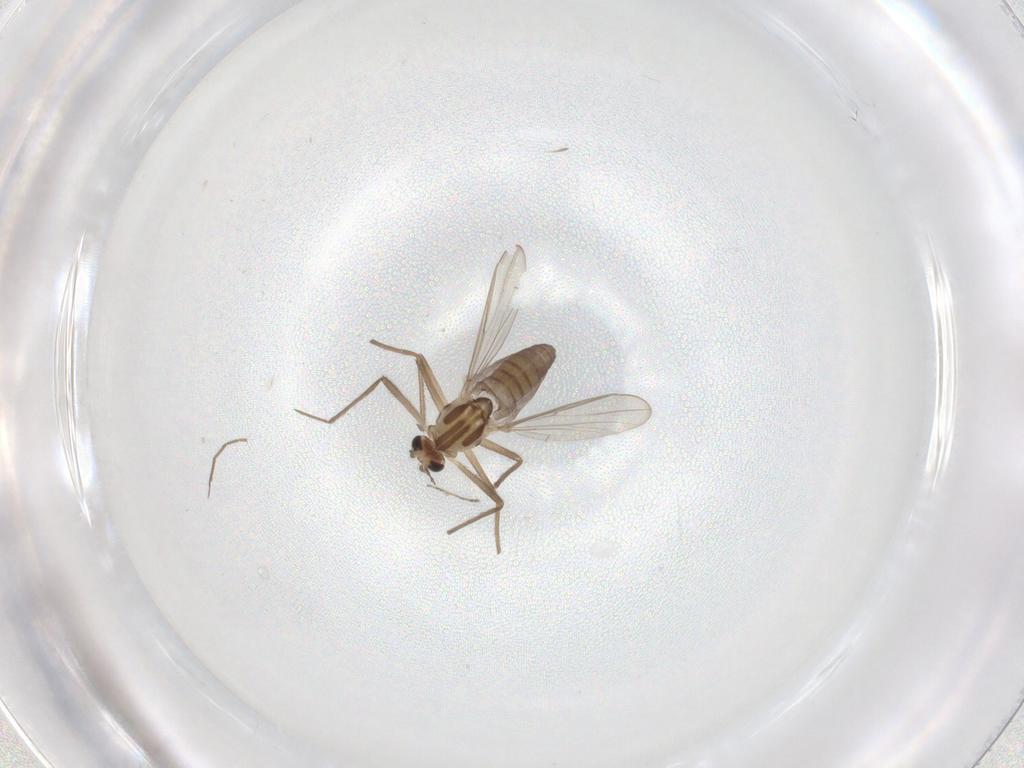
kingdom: Animalia
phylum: Arthropoda
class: Insecta
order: Diptera
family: Chironomidae
